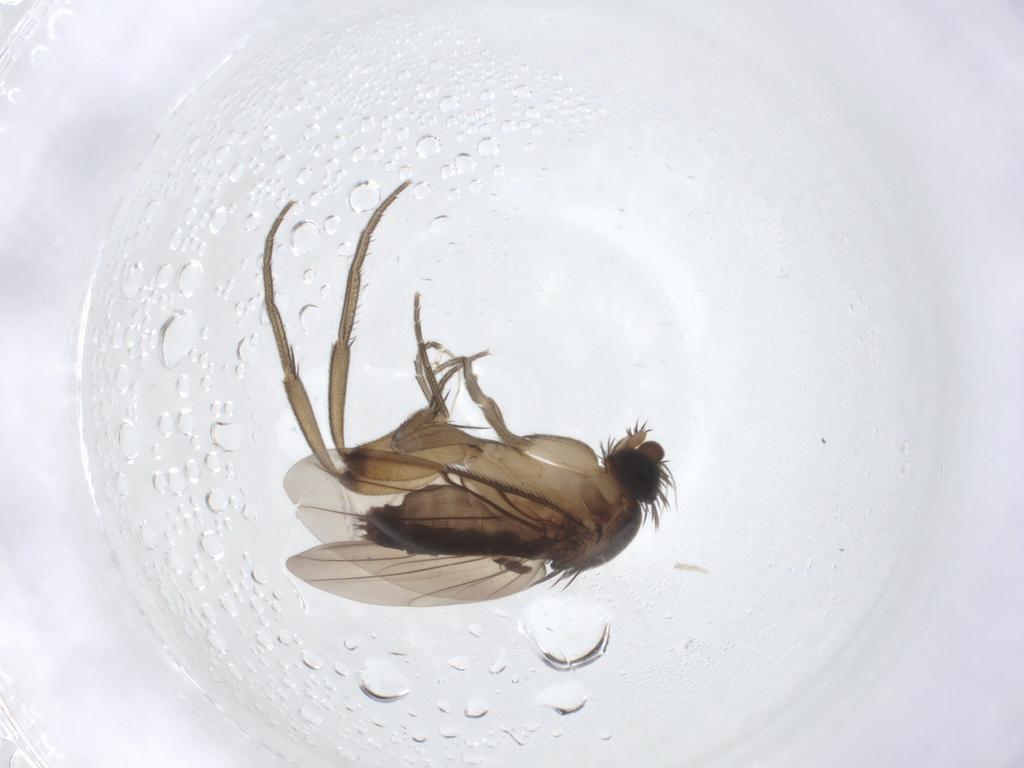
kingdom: Animalia
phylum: Arthropoda
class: Insecta
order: Diptera
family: Phoridae
